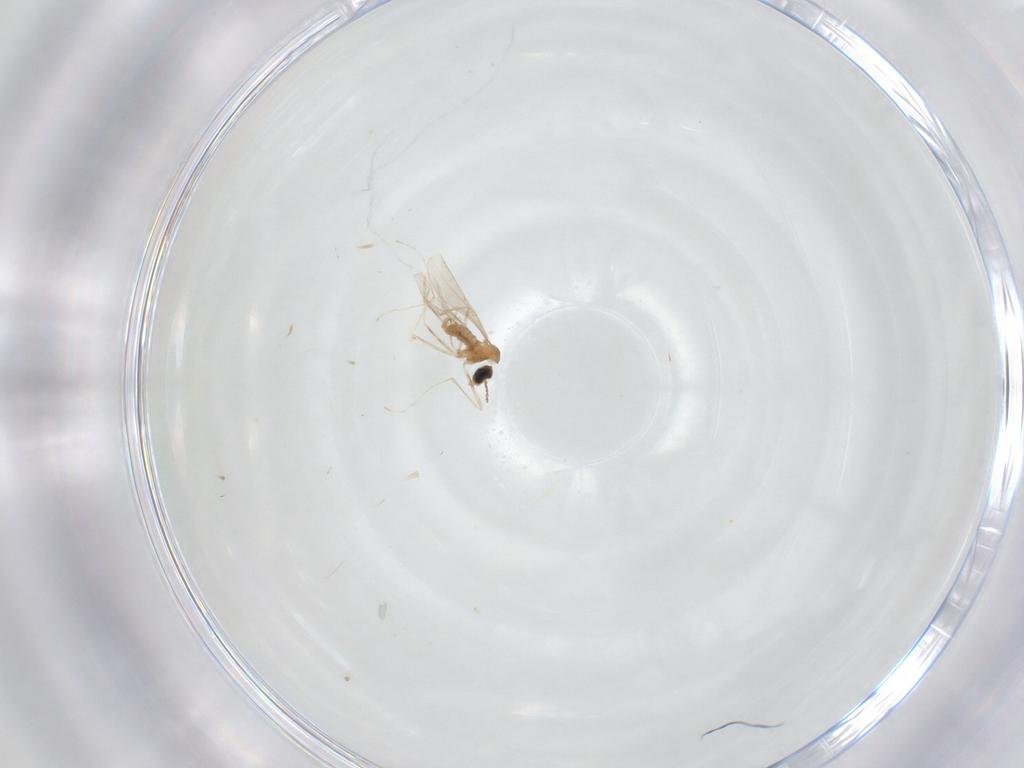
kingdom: Animalia
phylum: Arthropoda
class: Insecta
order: Diptera
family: Cecidomyiidae
